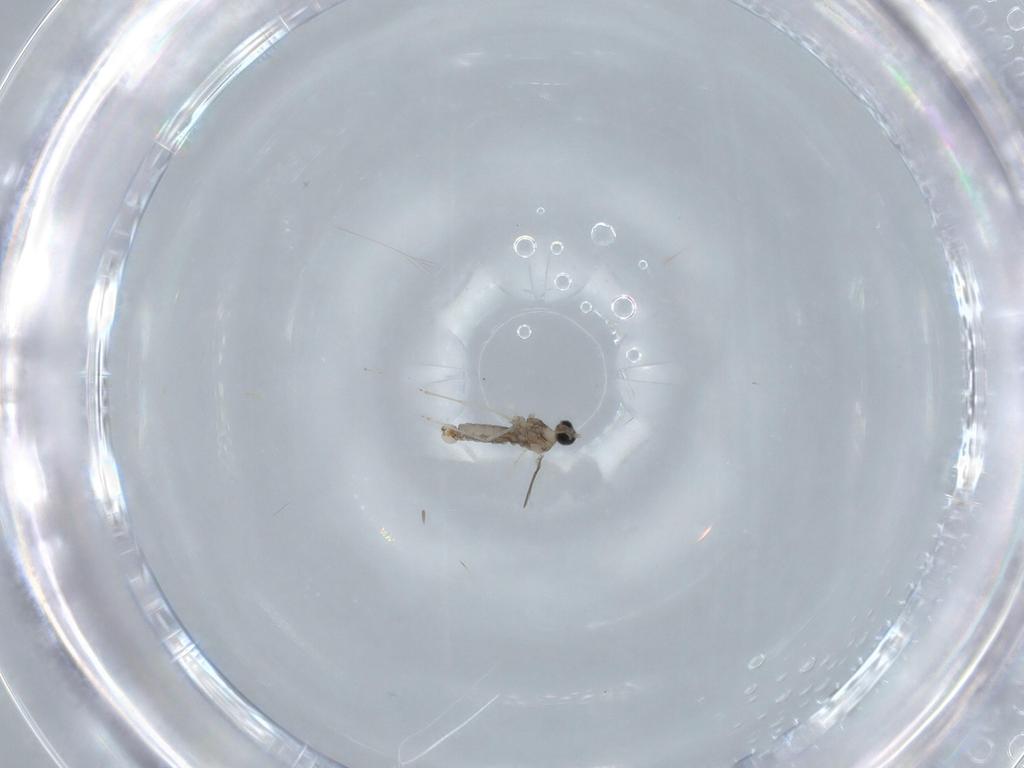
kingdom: Animalia
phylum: Arthropoda
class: Insecta
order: Diptera
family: Cecidomyiidae
